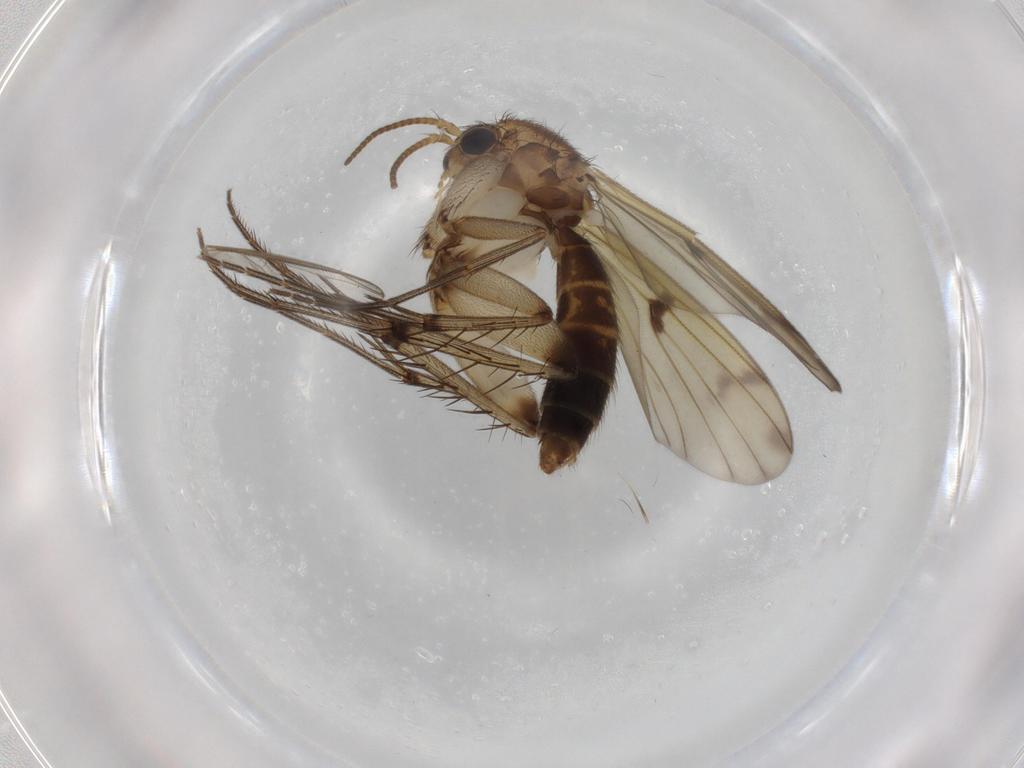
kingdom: Animalia
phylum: Arthropoda
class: Insecta
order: Diptera
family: Mycetophilidae
